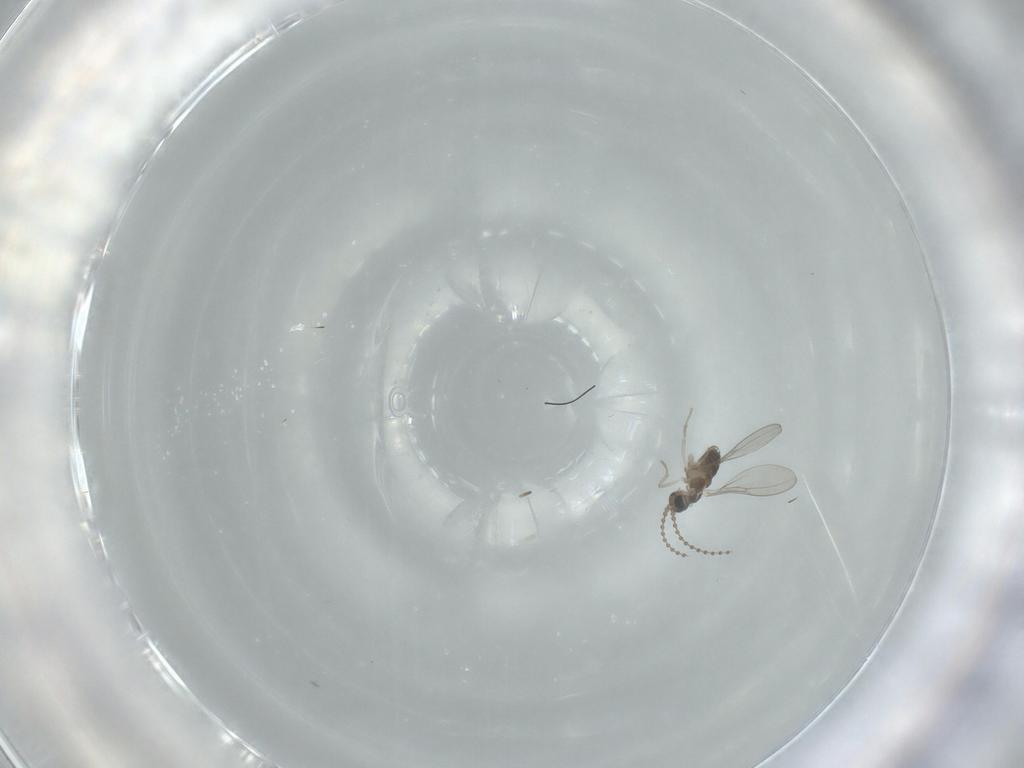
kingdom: Animalia
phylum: Arthropoda
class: Insecta
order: Diptera
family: Cecidomyiidae
